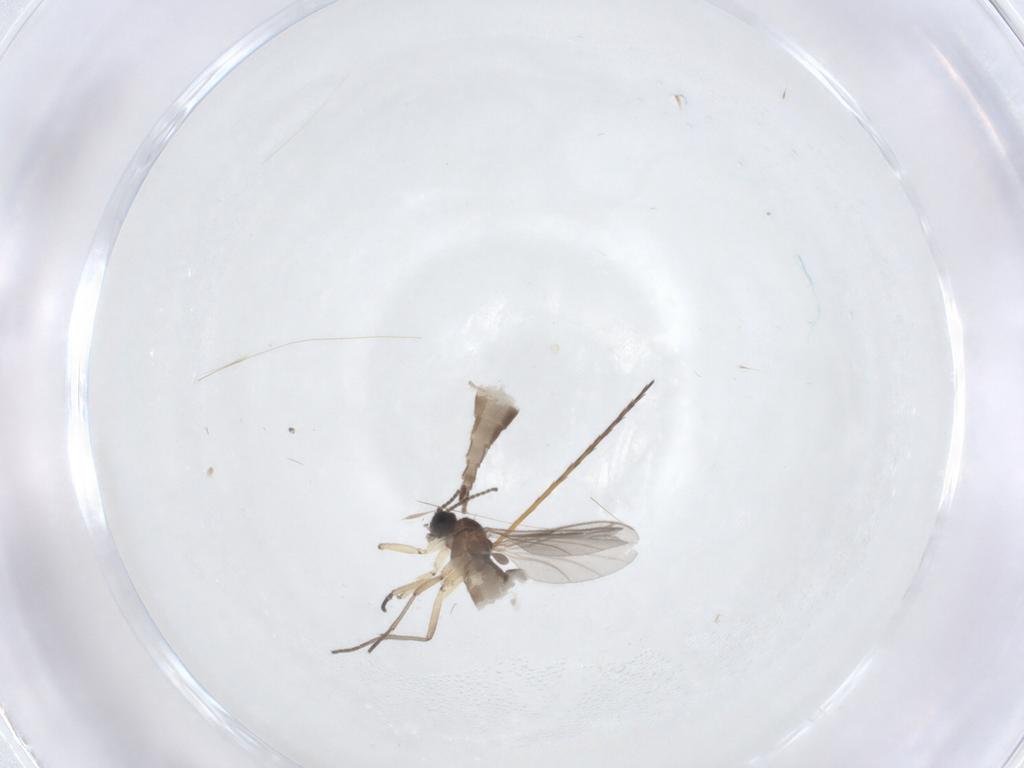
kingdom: Animalia
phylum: Arthropoda
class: Insecta
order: Diptera
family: Sciaridae
